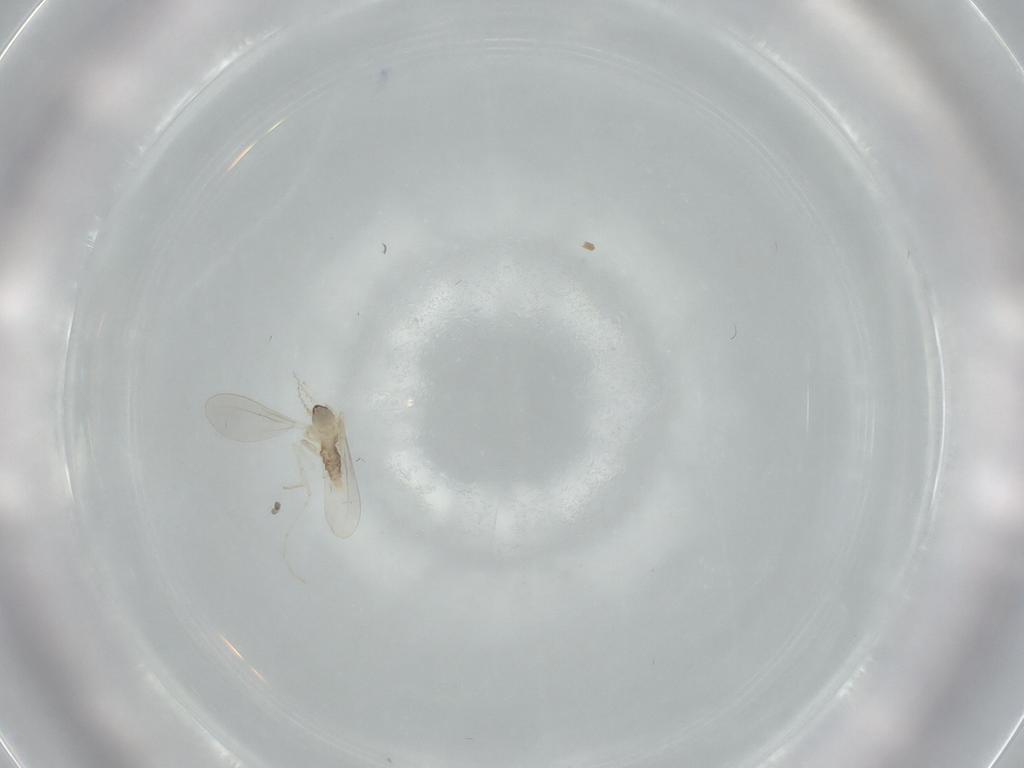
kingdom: Animalia
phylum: Arthropoda
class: Insecta
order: Diptera
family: Cecidomyiidae
